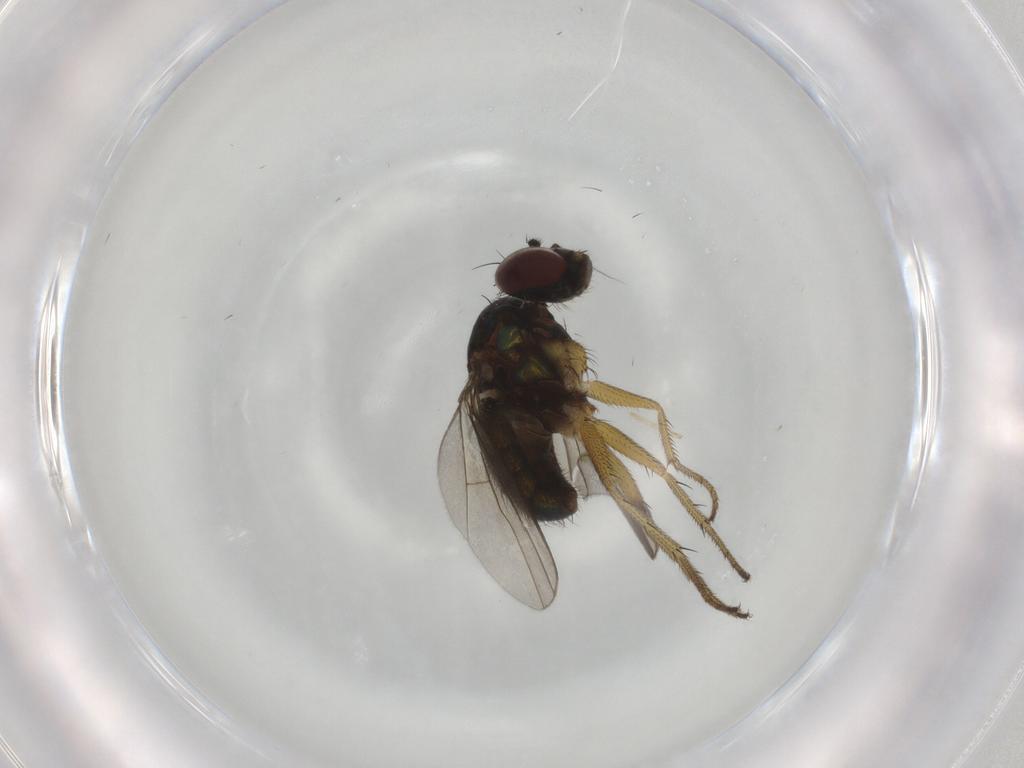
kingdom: Animalia
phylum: Arthropoda
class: Insecta
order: Diptera
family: Dolichopodidae
